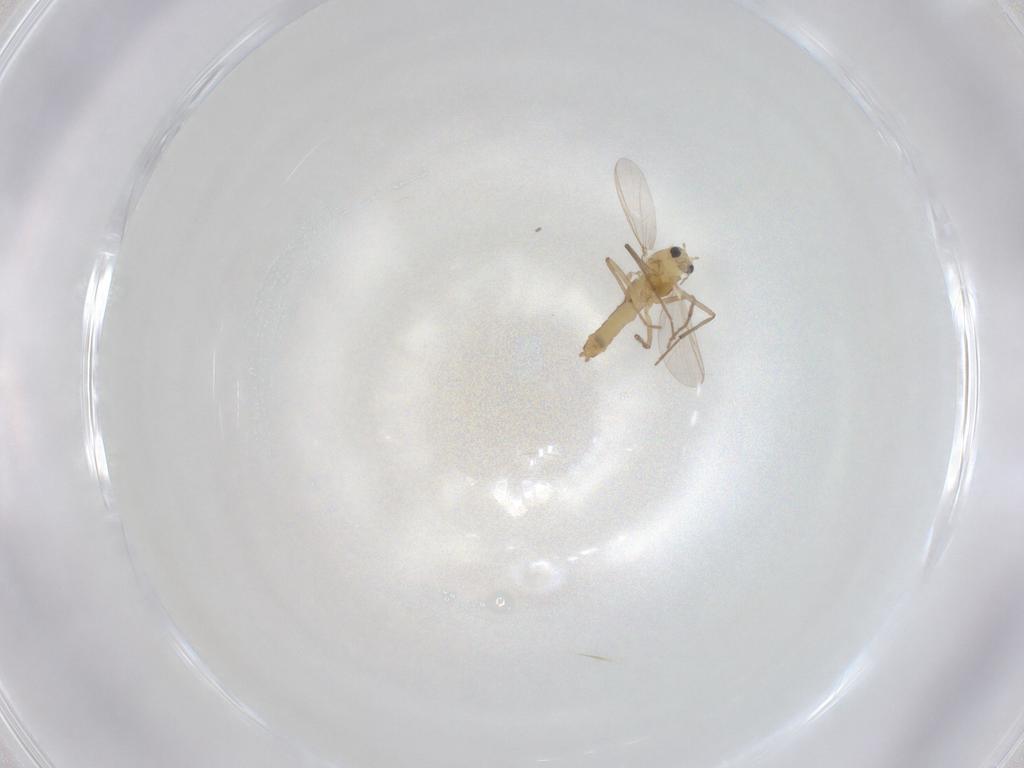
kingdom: Animalia
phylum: Arthropoda
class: Insecta
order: Diptera
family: Chironomidae
